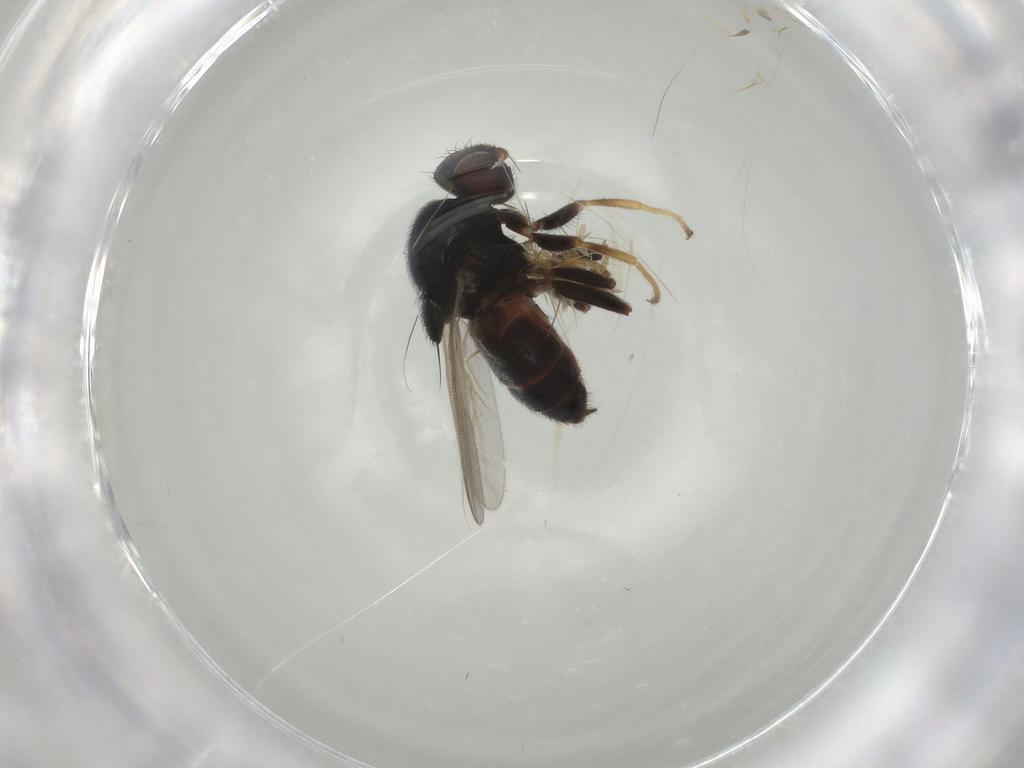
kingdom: Animalia
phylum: Arthropoda
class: Insecta
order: Diptera
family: Chloropidae
